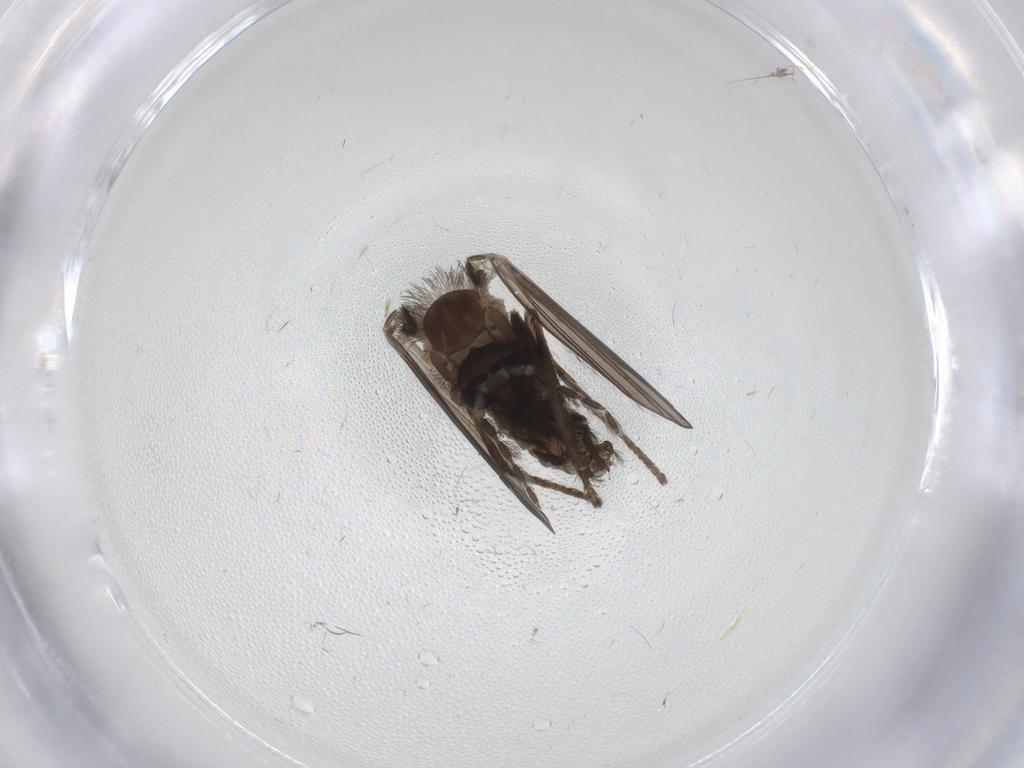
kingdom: Animalia
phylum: Arthropoda
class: Insecta
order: Diptera
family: Psychodidae
